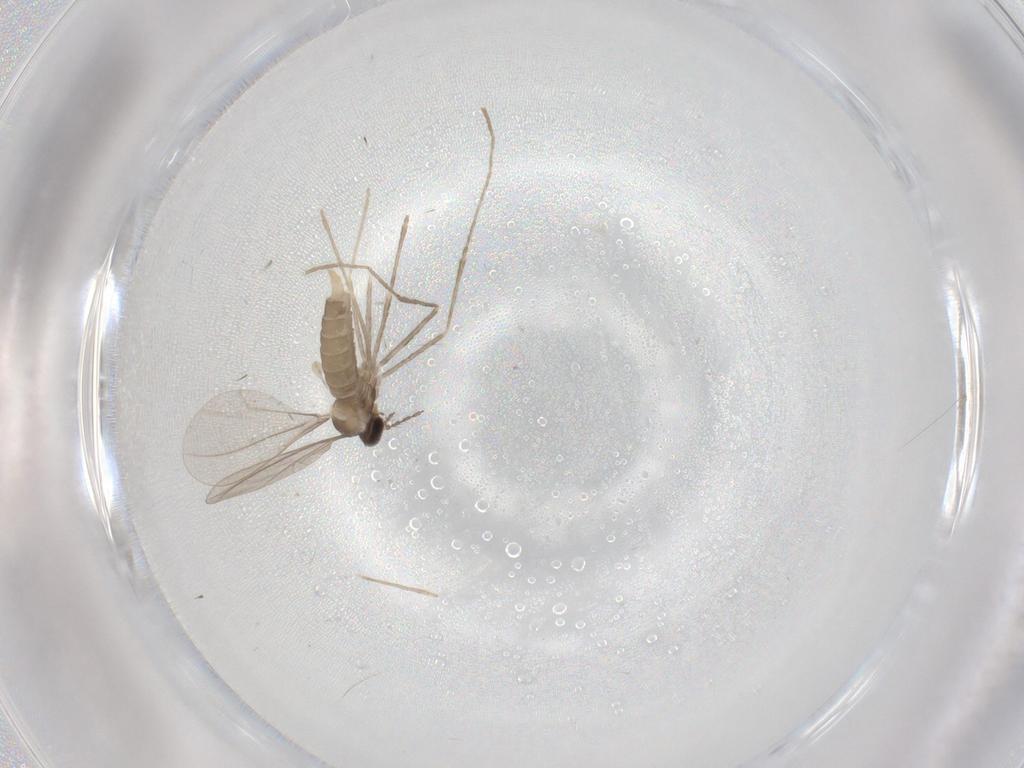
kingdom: Animalia
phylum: Arthropoda
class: Insecta
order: Diptera
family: Cecidomyiidae
